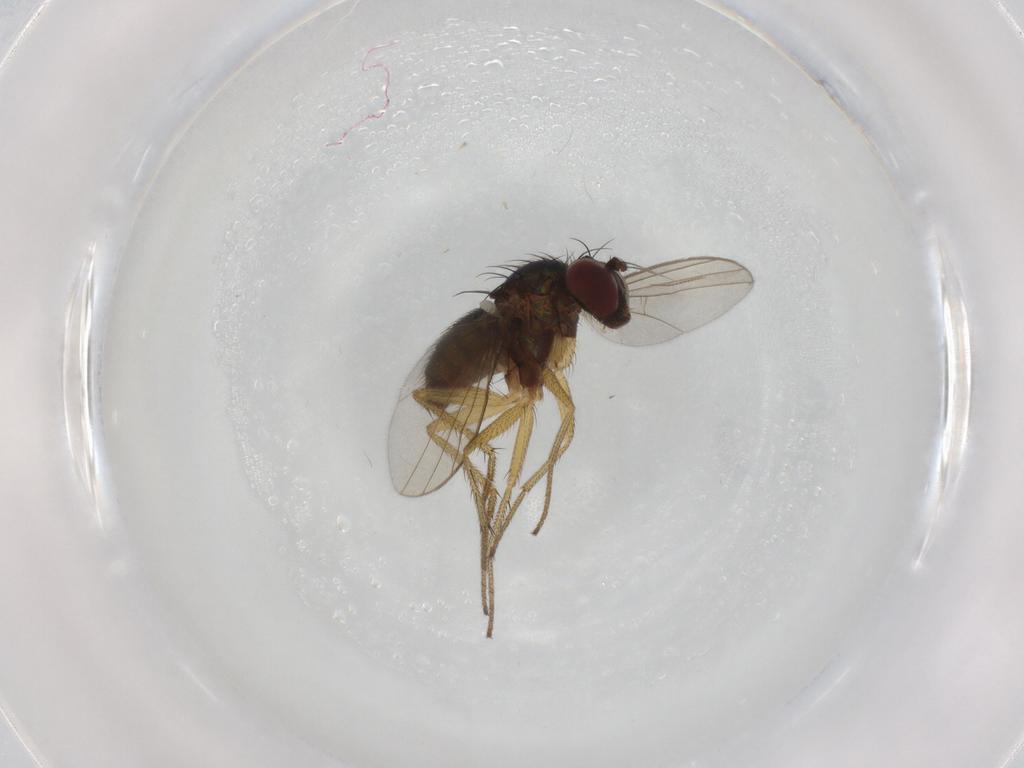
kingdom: Animalia
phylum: Arthropoda
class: Insecta
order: Diptera
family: Dolichopodidae
